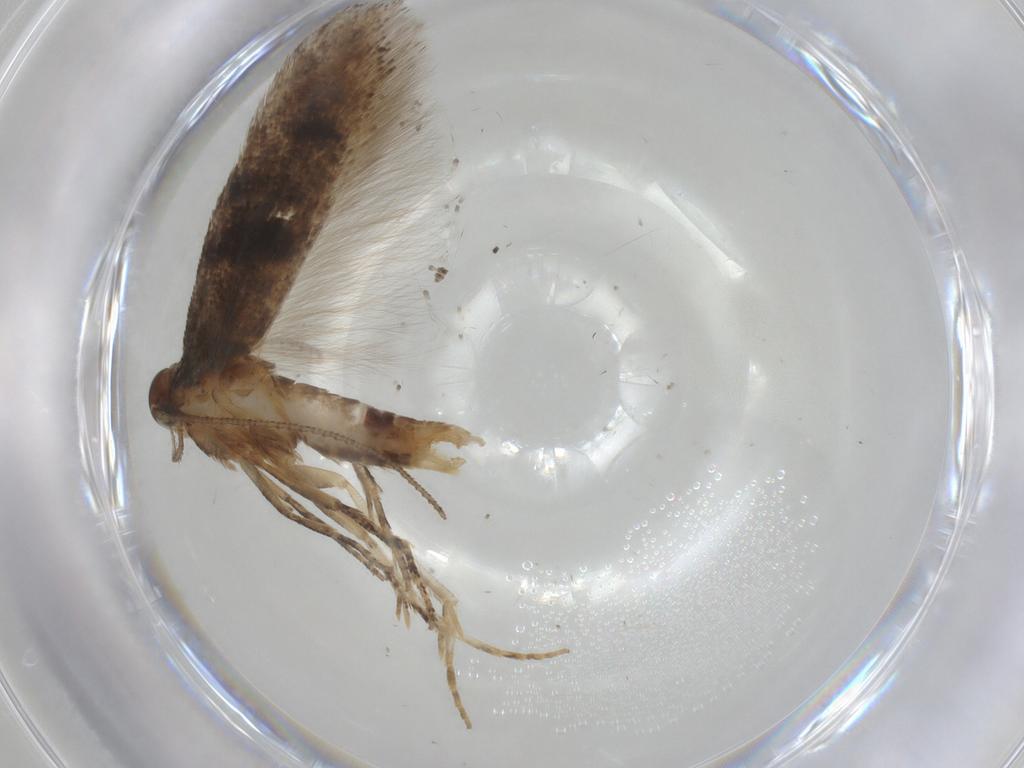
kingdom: Animalia
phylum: Arthropoda
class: Insecta
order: Lepidoptera
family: Gelechiidae
